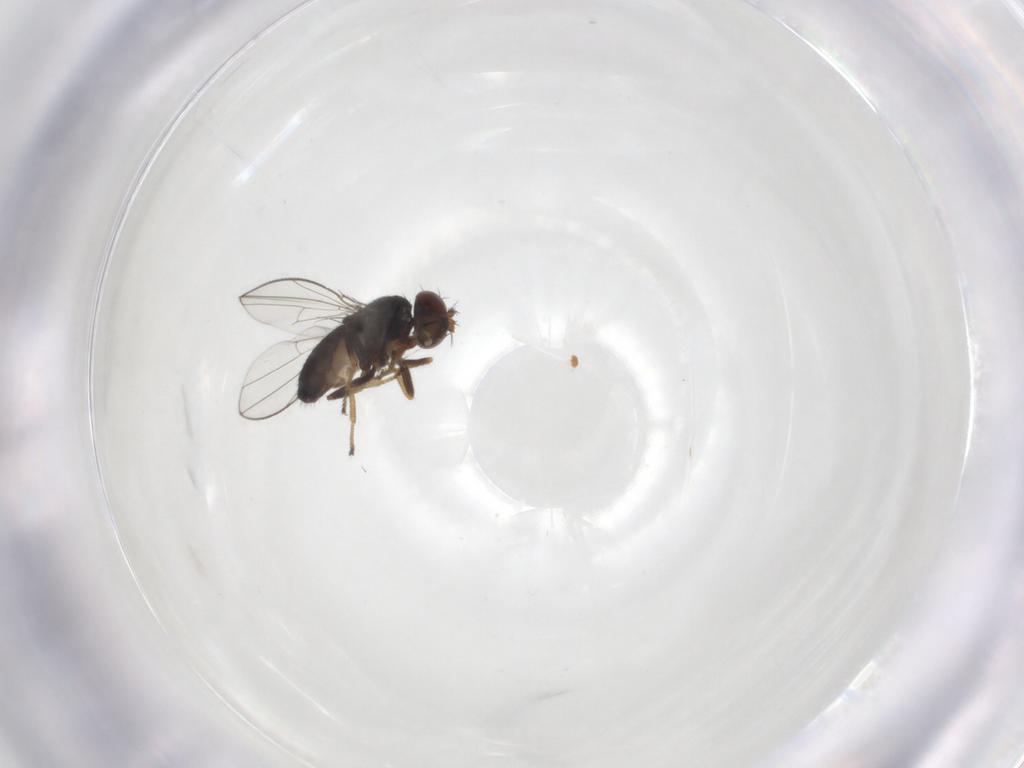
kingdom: Animalia
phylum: Arthropoda
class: Insecta
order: Diptera
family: Ephydridae
